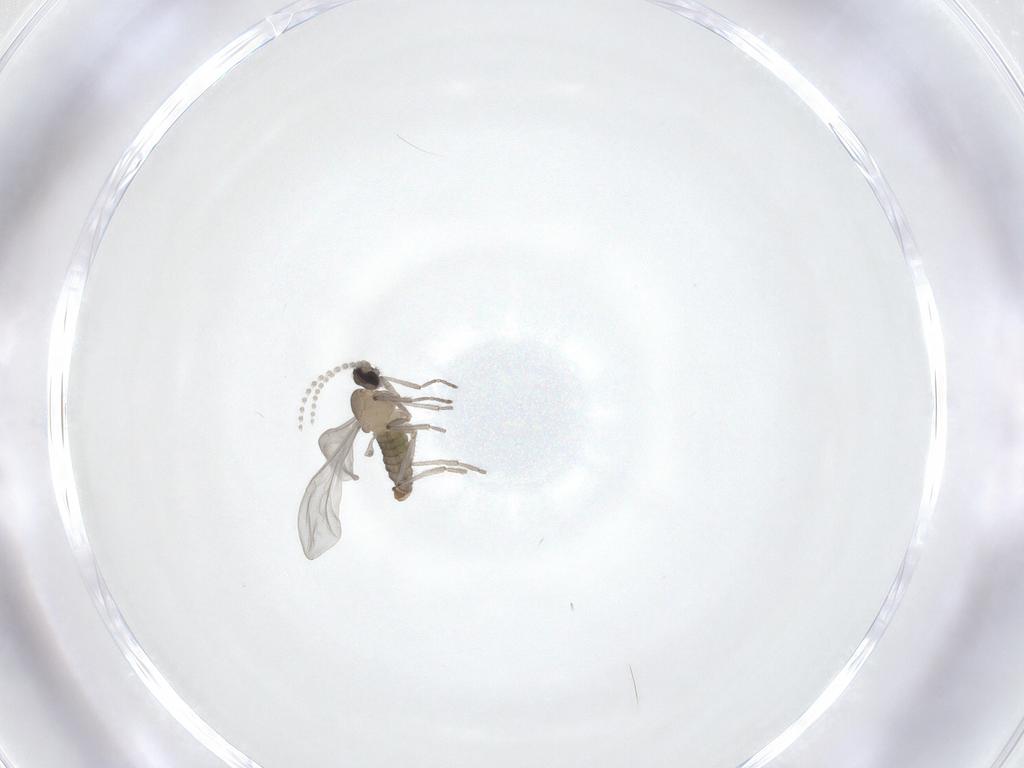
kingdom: Animalia
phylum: Arthropoda
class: Insecta
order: Diptera
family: Cecidomyiidae
